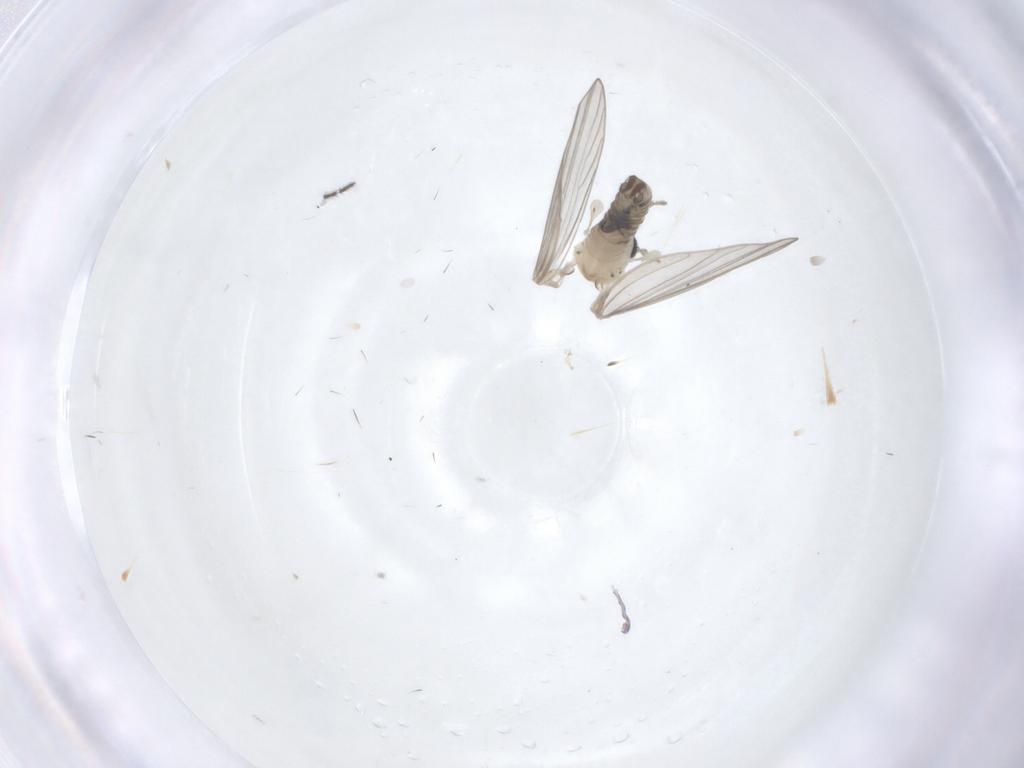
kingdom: Animalia
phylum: Arthropoda
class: Insecta
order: Diptera
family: Psychodidae
